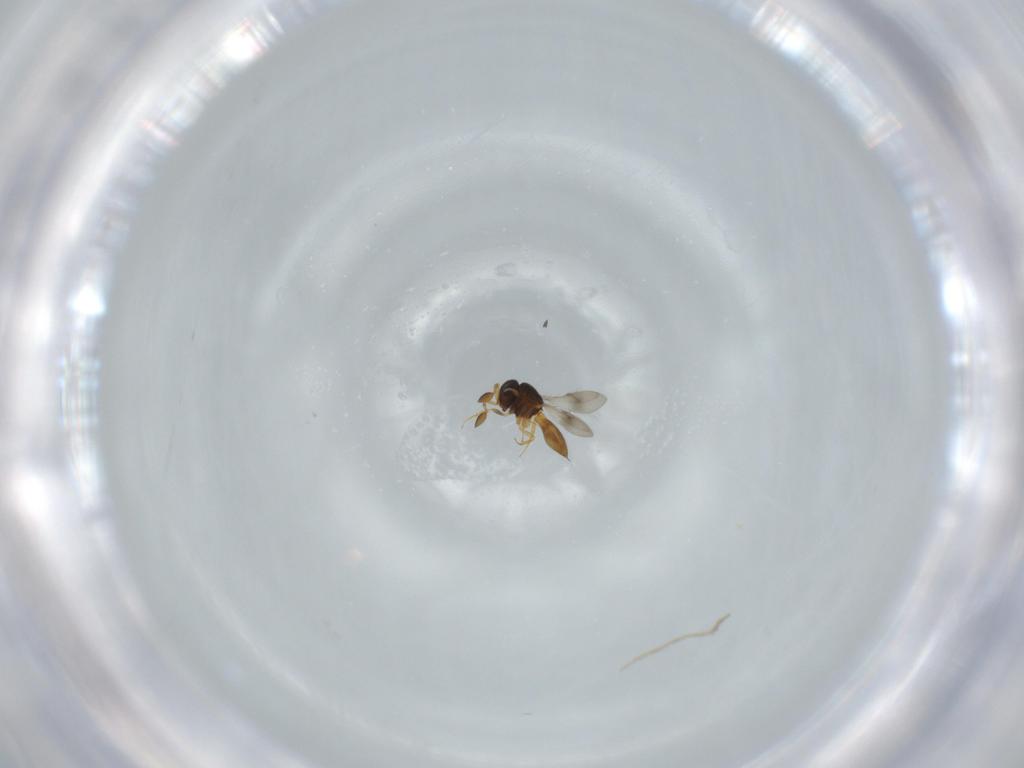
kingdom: Animalia
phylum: Arthropoda
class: Insecta
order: Hymenoptera
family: Scelionidae
